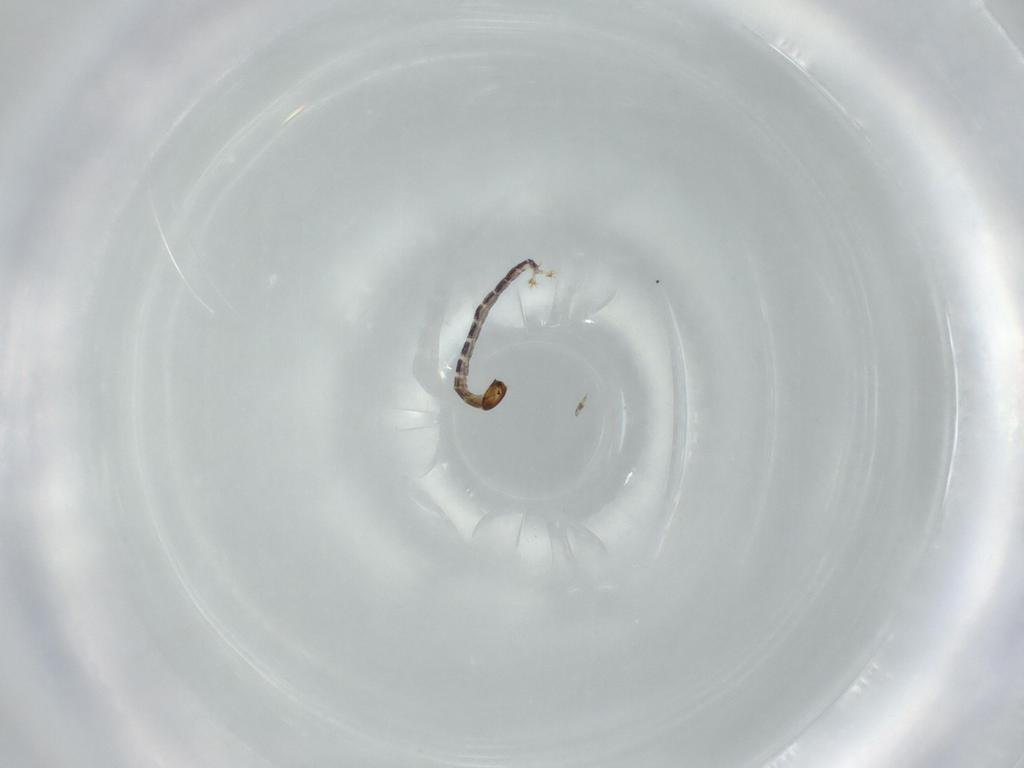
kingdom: Animalia
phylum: Arthropoda
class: Insecta
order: Diptera
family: Chironomidae
